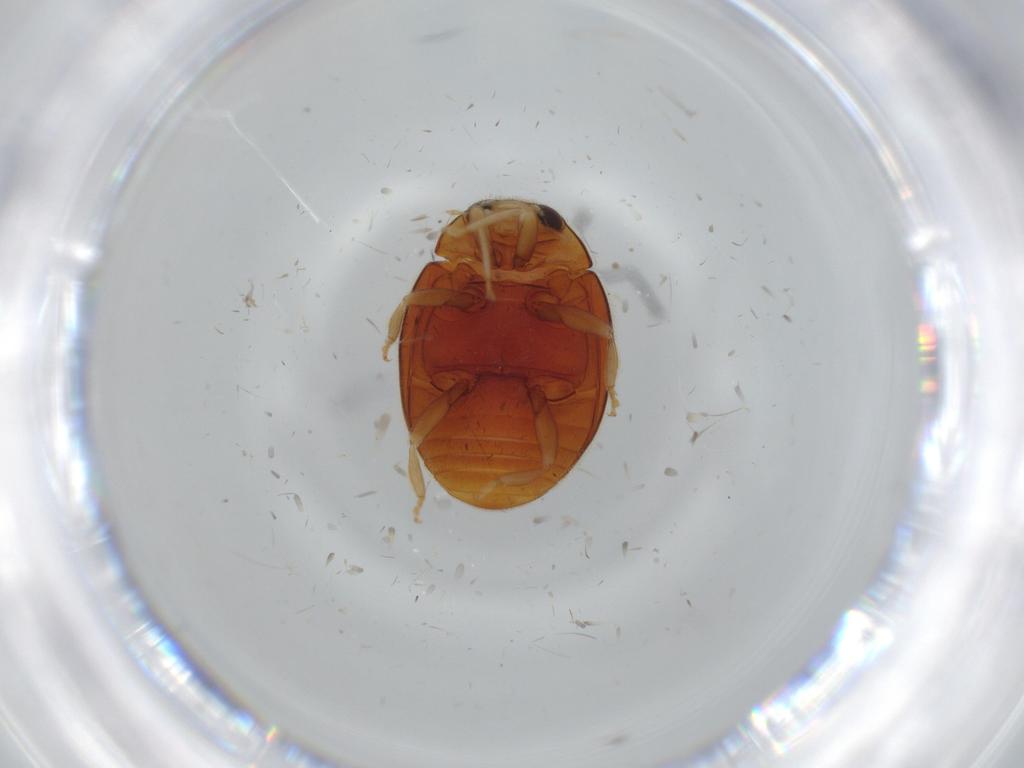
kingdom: Animalia
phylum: Arthropoda
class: Insecta
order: Coleoptera
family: Coccinellidae
